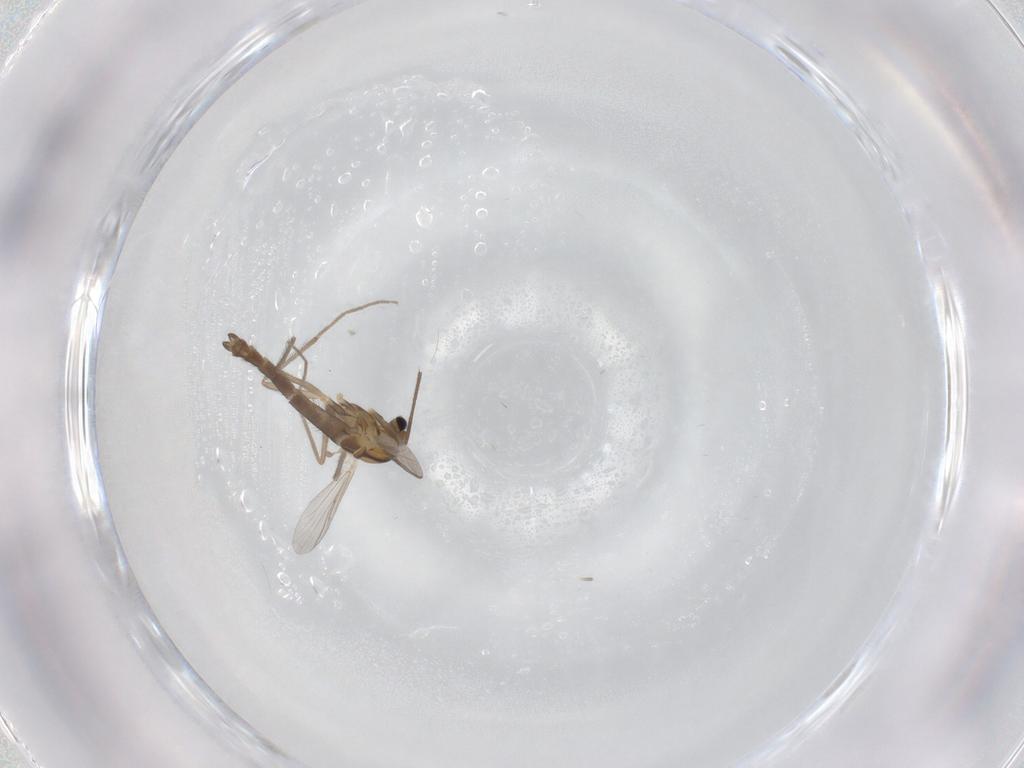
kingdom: Animalia
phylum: Arthropoda
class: Insecta
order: Diptera
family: Chironomidae
